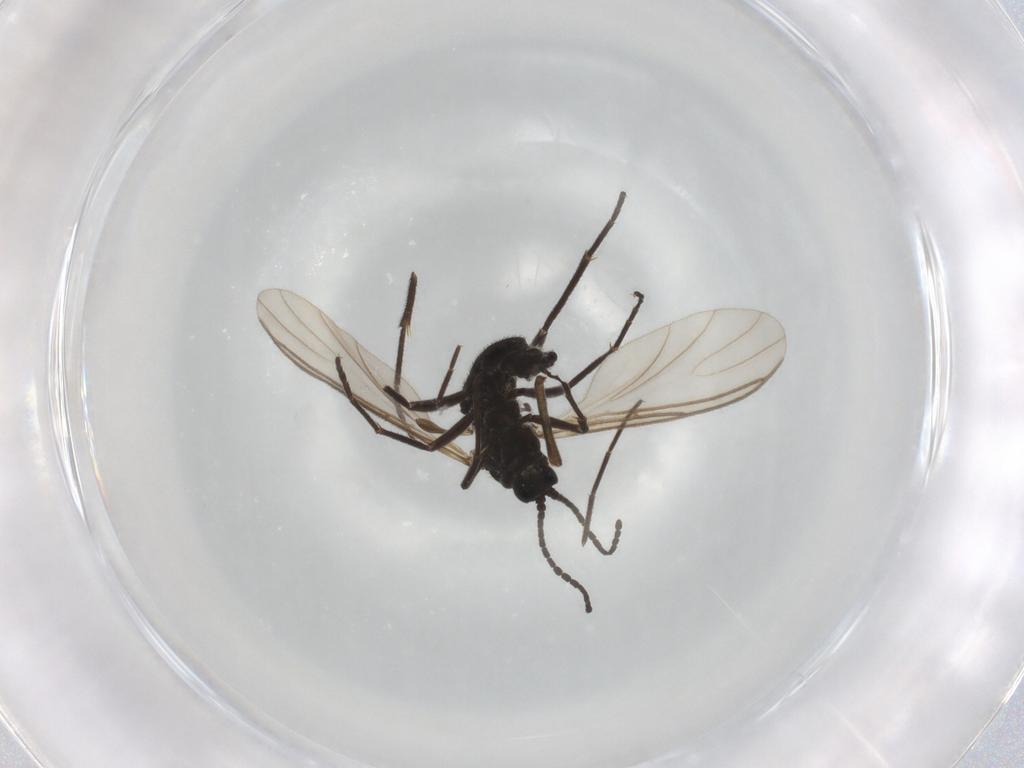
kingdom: Animalia
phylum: Arthropoda
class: Insecta
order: Diptera
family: Sciaridae
